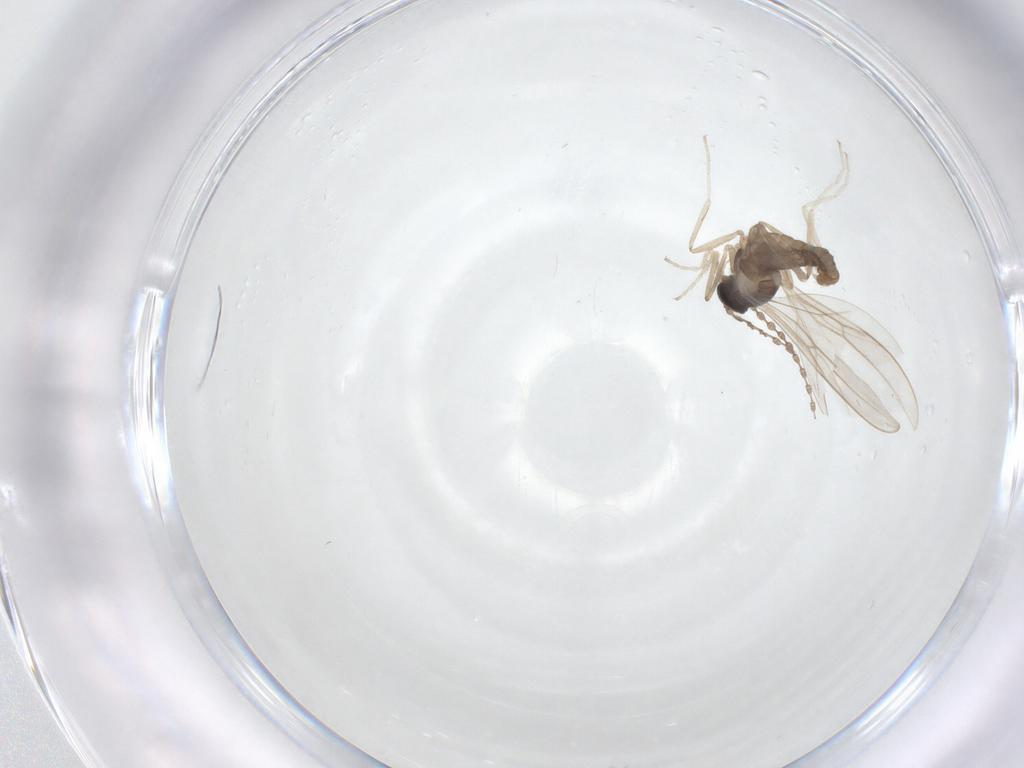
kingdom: Animalia
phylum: Arthropoda
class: Insecta
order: Diptera
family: Cecidomyiidae
